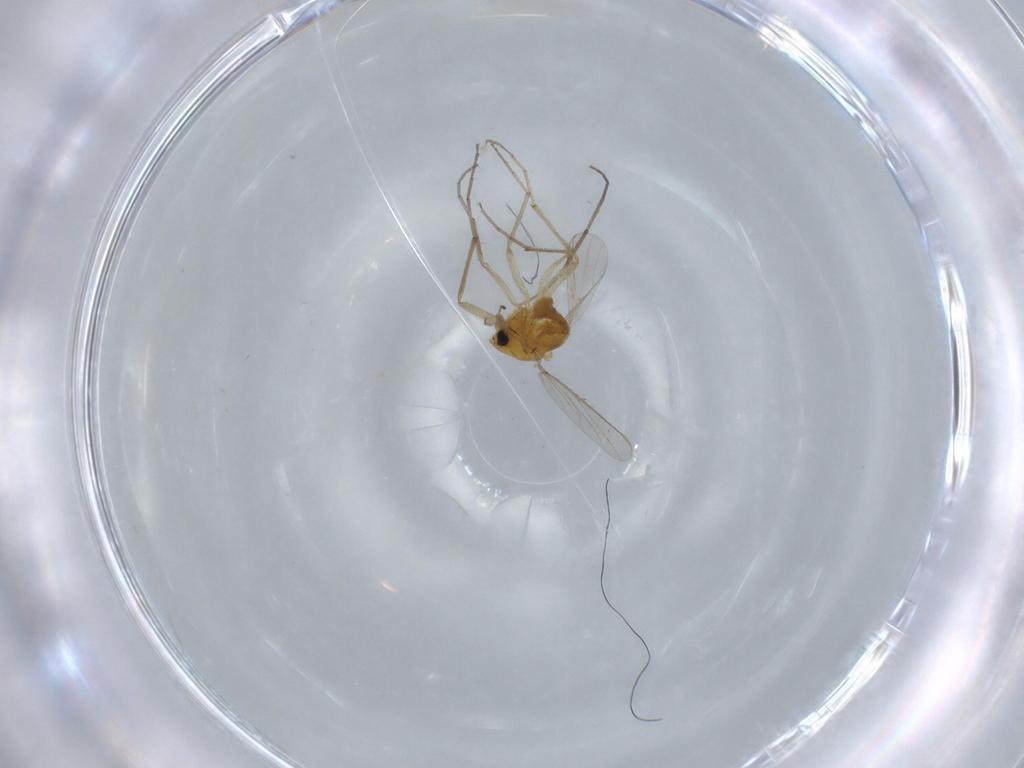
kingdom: Animalia
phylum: Arthropoda
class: Insecta
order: Diptera
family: Chironomidae
